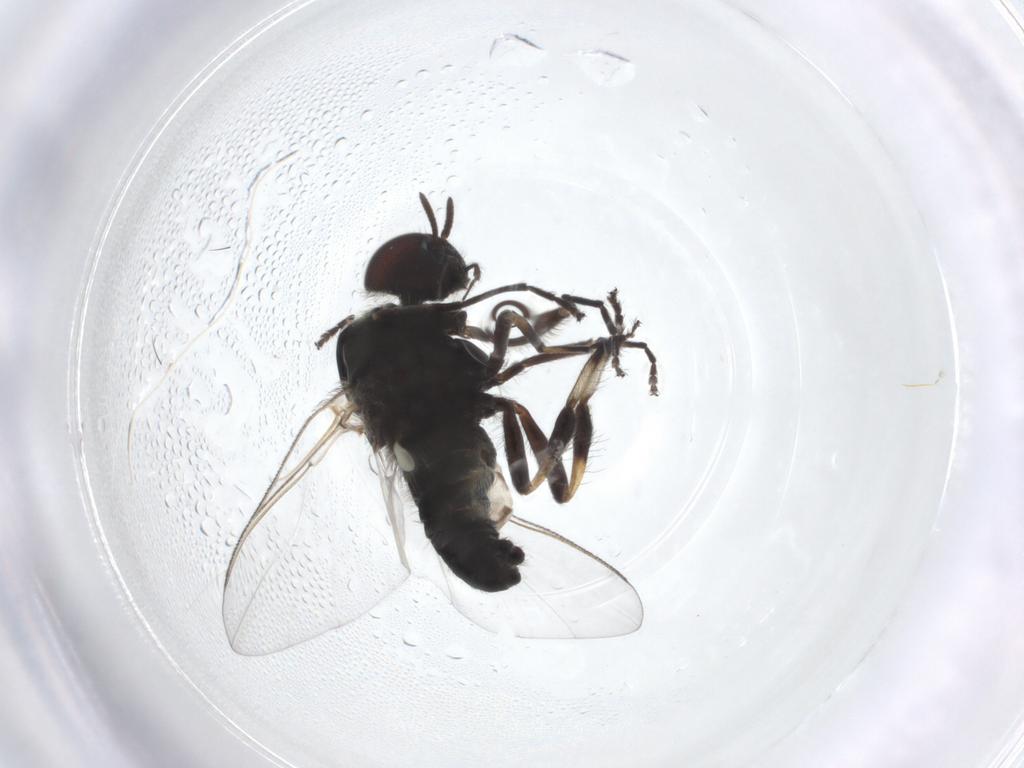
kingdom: Animalia
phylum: Arthropoda
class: Insecta
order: Diptera
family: Simuliidae
